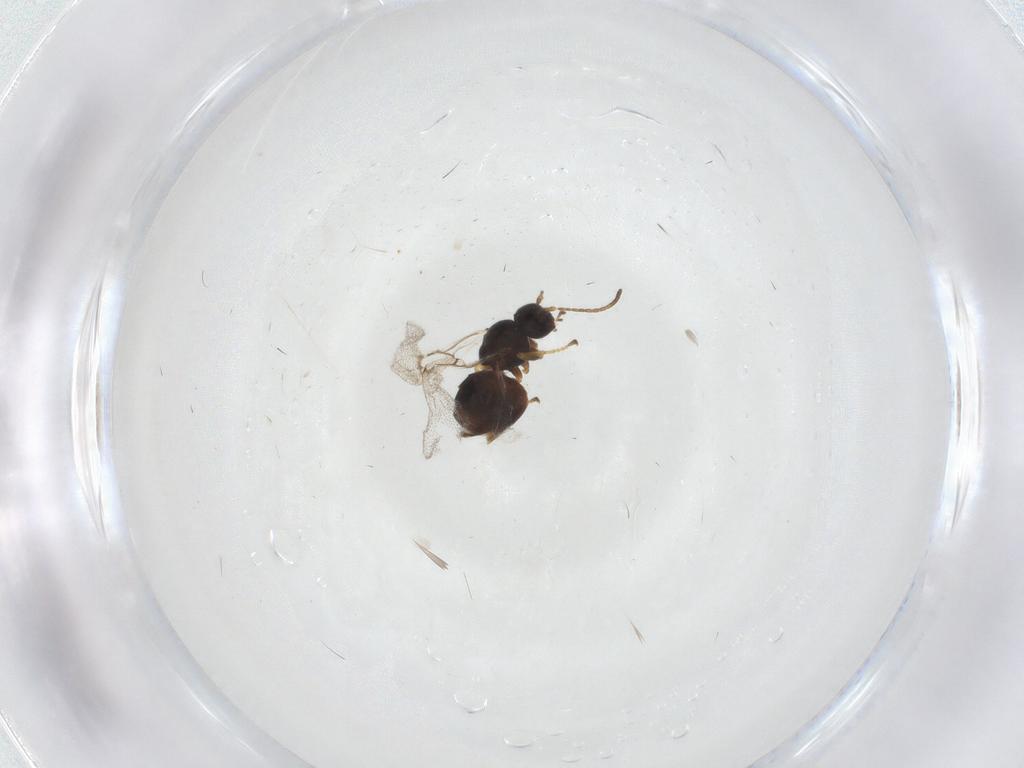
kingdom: Animalia
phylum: Arthropoda
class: Insecta
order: Hymenoptera
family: Cynipidae
